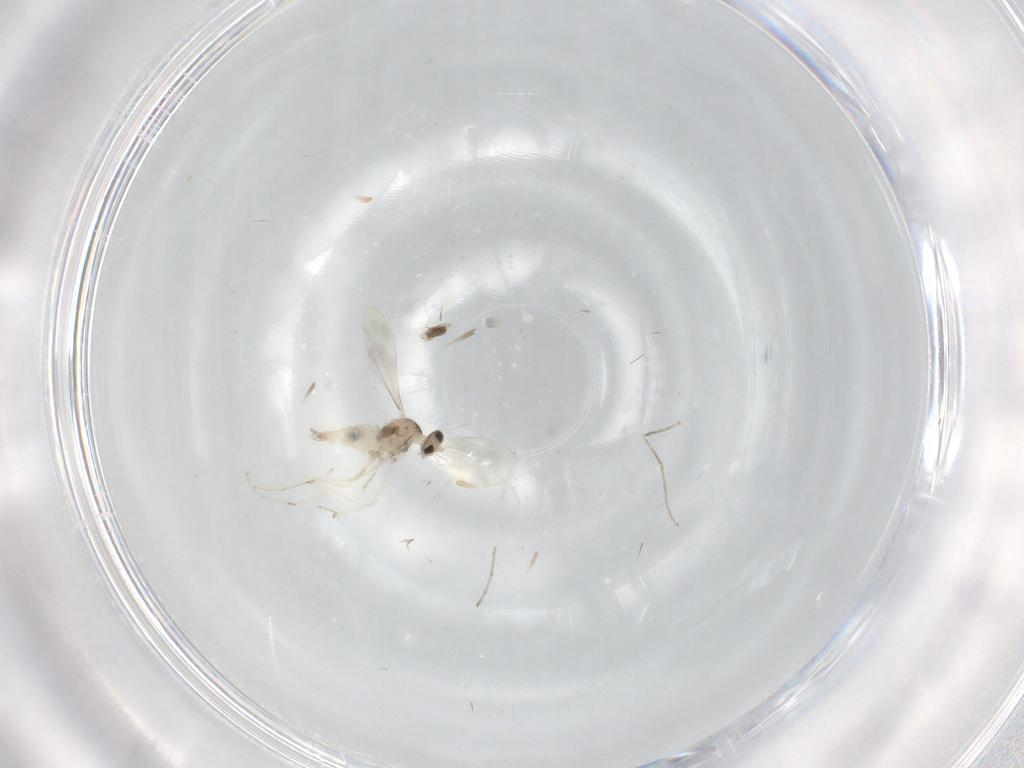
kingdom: Animalia
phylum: Arthropoda
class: Insecta
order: Diptera
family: Cecidomyiidae
